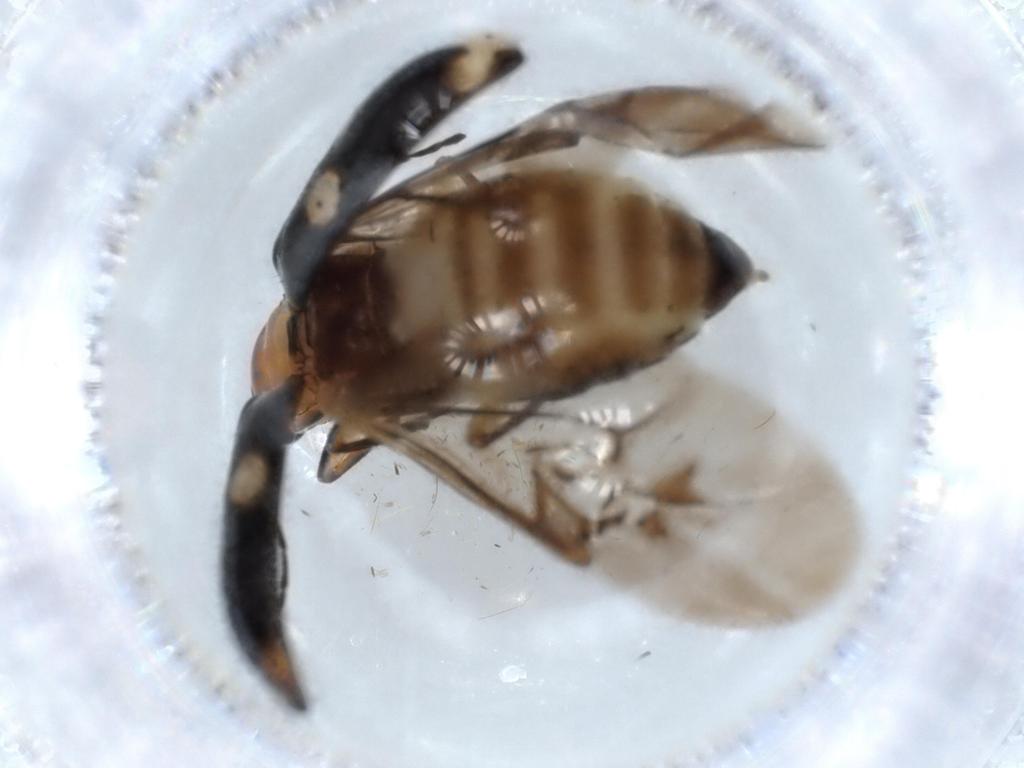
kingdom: Animalia
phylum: Arthropoda
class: Insecta
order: Coleoptera
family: Chrysomelidae
